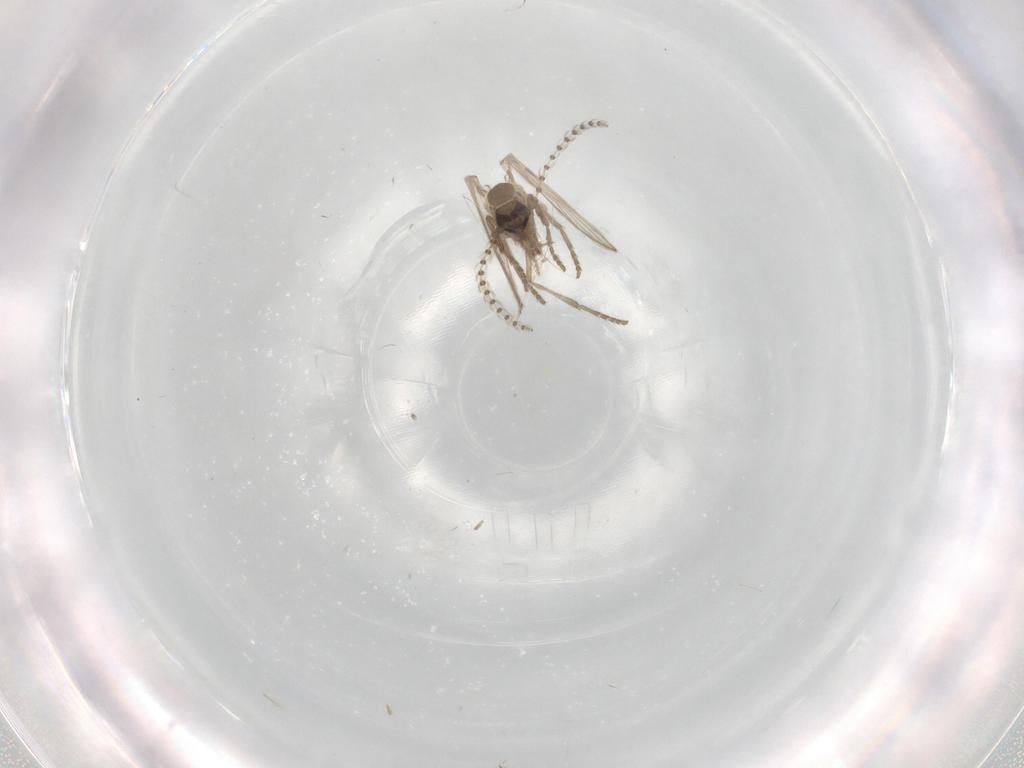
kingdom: Animalia
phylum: Arthropoda
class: Insecta
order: Diptera
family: Psychodidae
